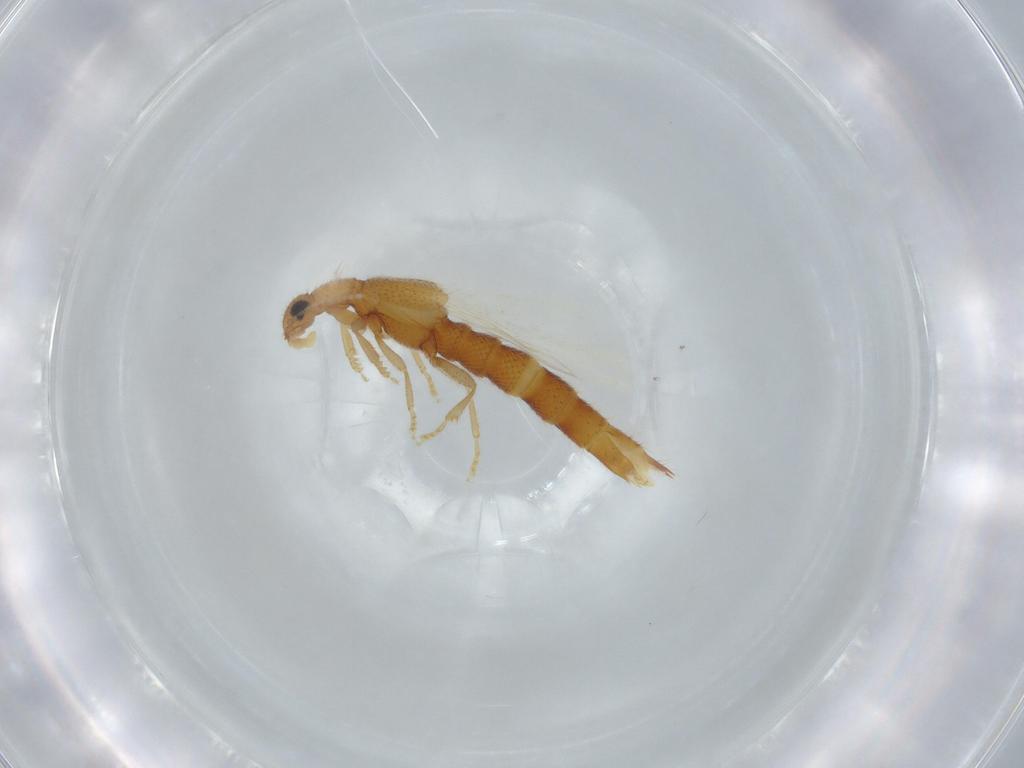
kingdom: Animalia
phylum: Arthropoda
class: Insecta
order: Coleoptera
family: Staphylinidae
